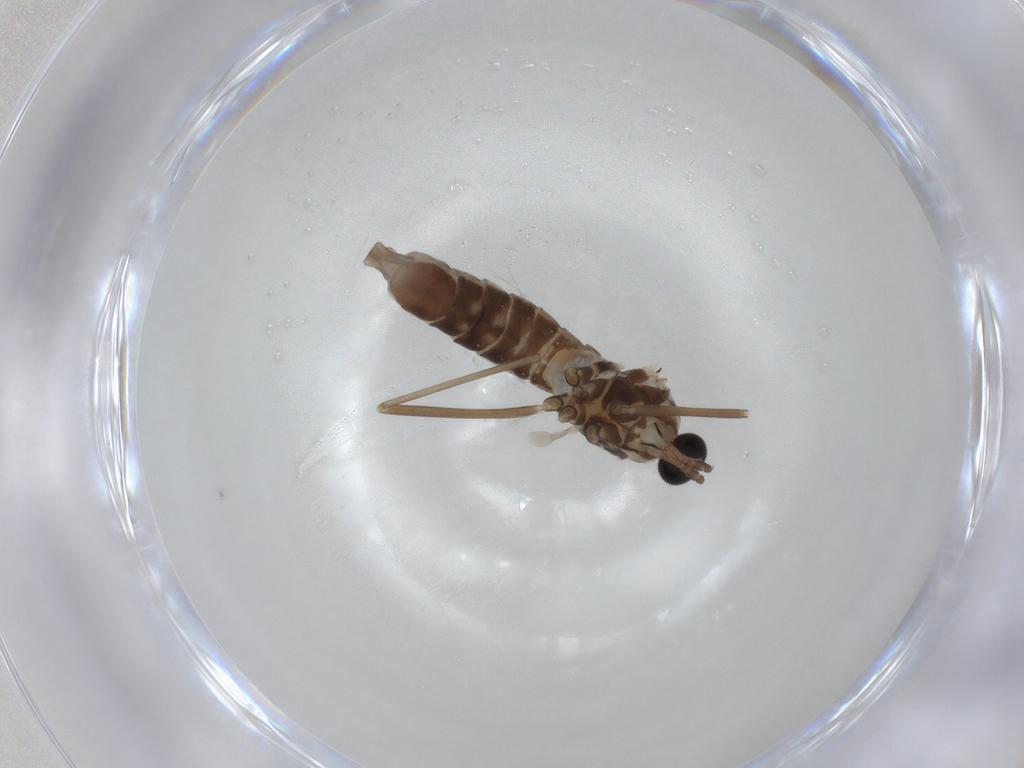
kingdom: Animalia
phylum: Arthropoda
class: Insecta
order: Diptera
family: Cecidomyiidae
